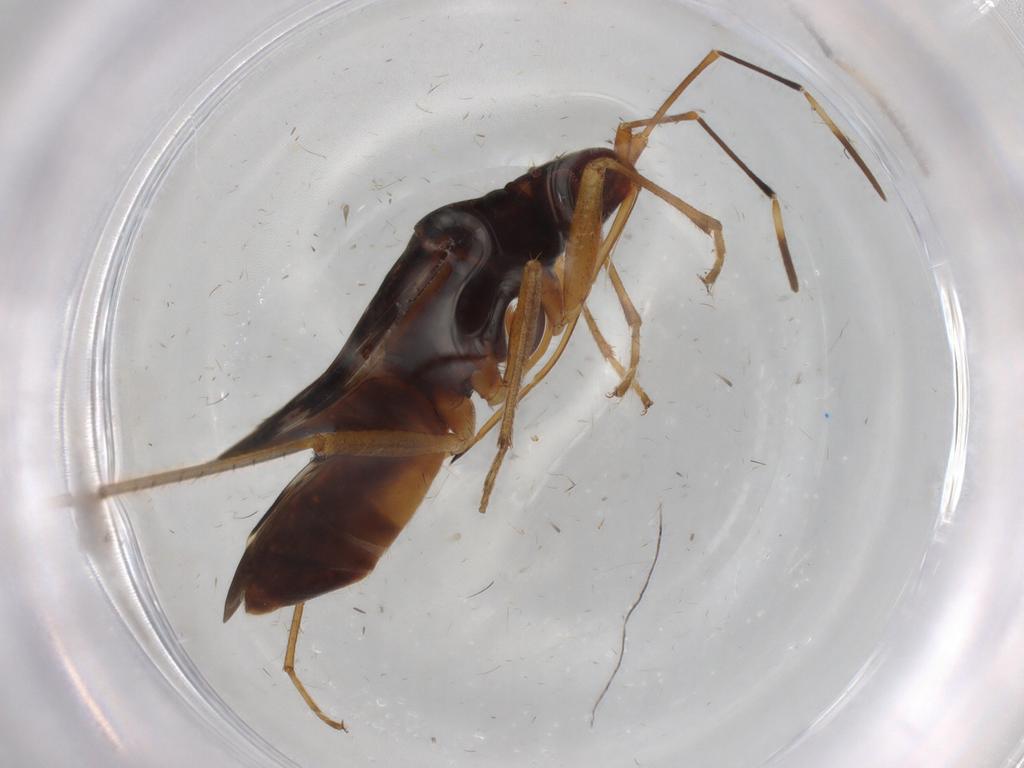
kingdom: Animalia
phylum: Arthropoda
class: Insecta
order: Hemiptera
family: Rhyparochromidae
